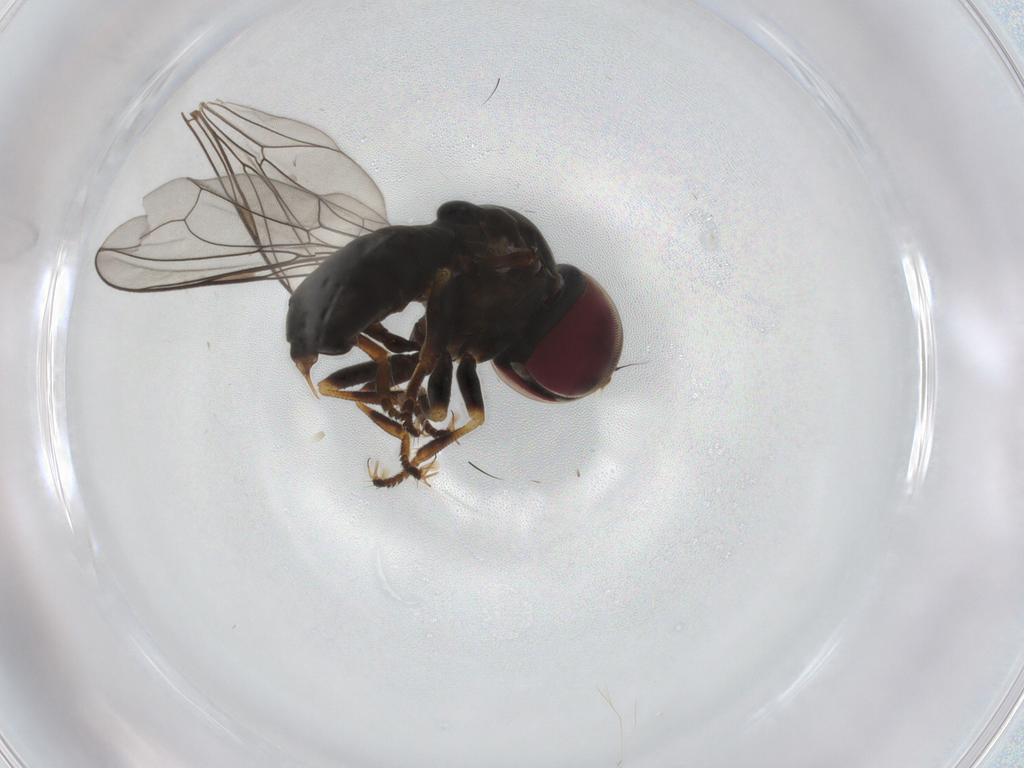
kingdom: Animalia
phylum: Arthropoda
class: Insecta
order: Diptera
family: Pipunculidae
